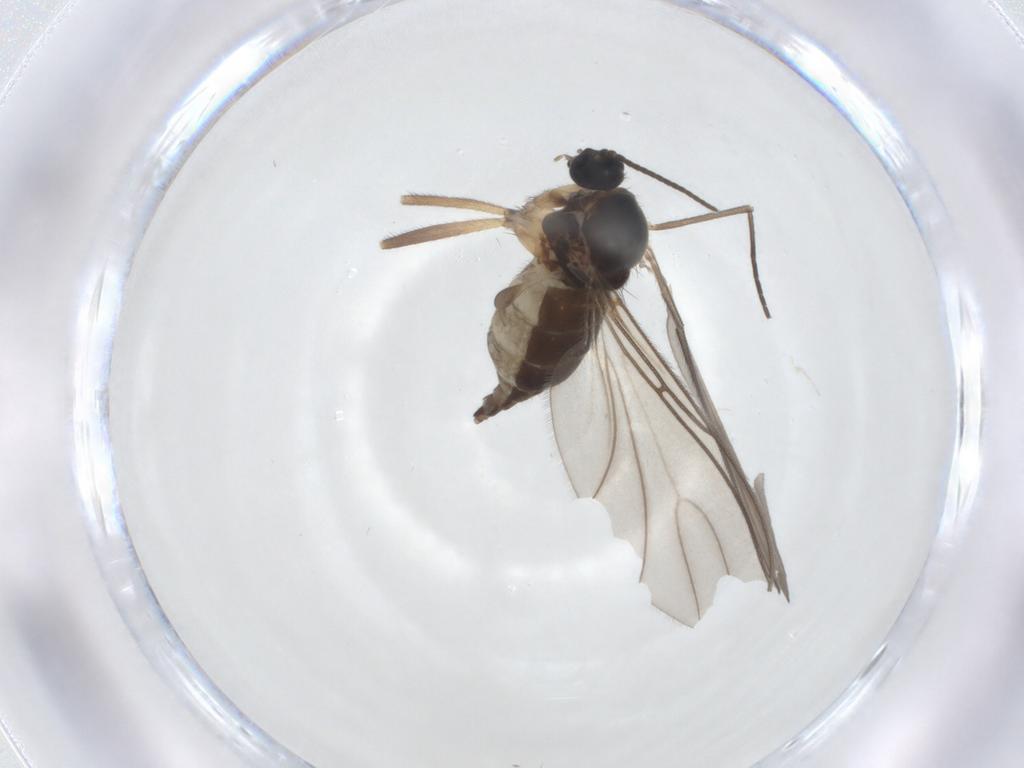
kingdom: Animalia
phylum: Arthropoda
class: Insecta
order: Diptera
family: Sciaridae
